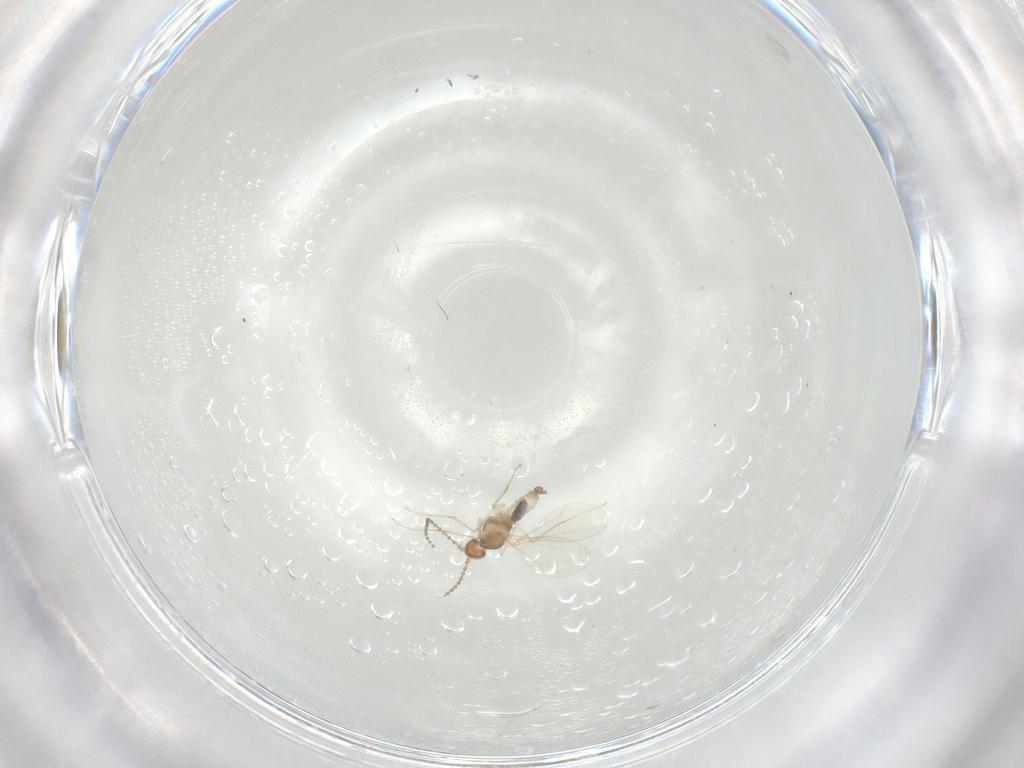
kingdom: Animalia
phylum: Arthropoda
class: Insecta
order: Diptera
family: Cecidomyiidae
